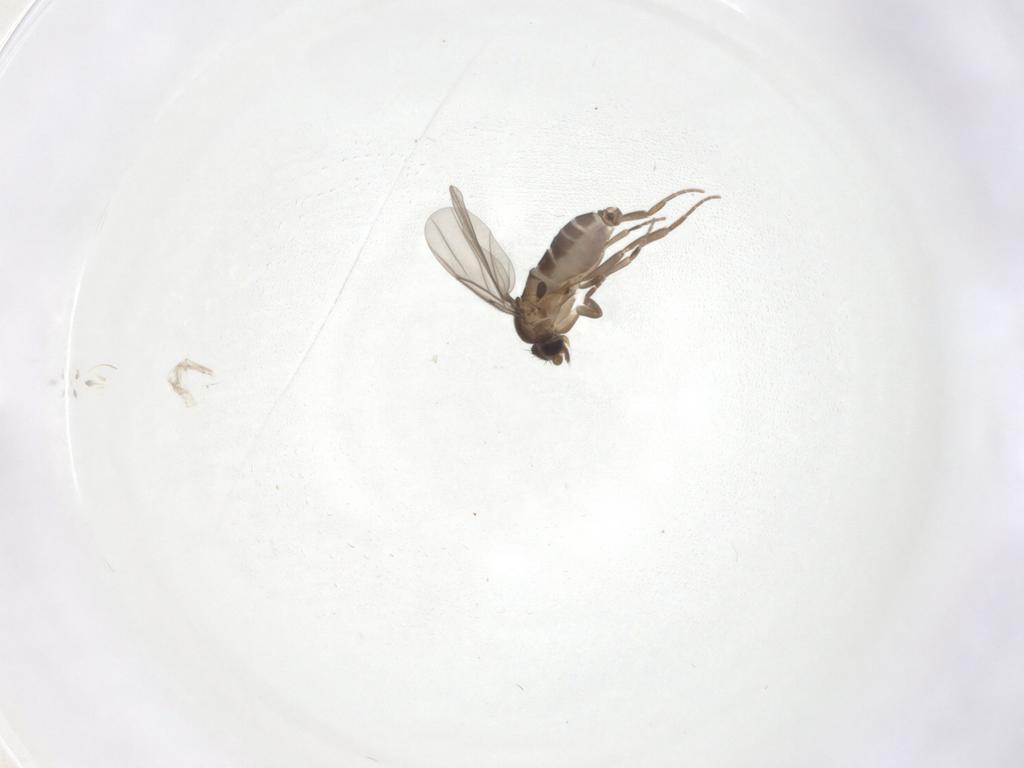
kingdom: Animalia
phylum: Arthropoda
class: Insecta
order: Diptera
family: Phoridae
